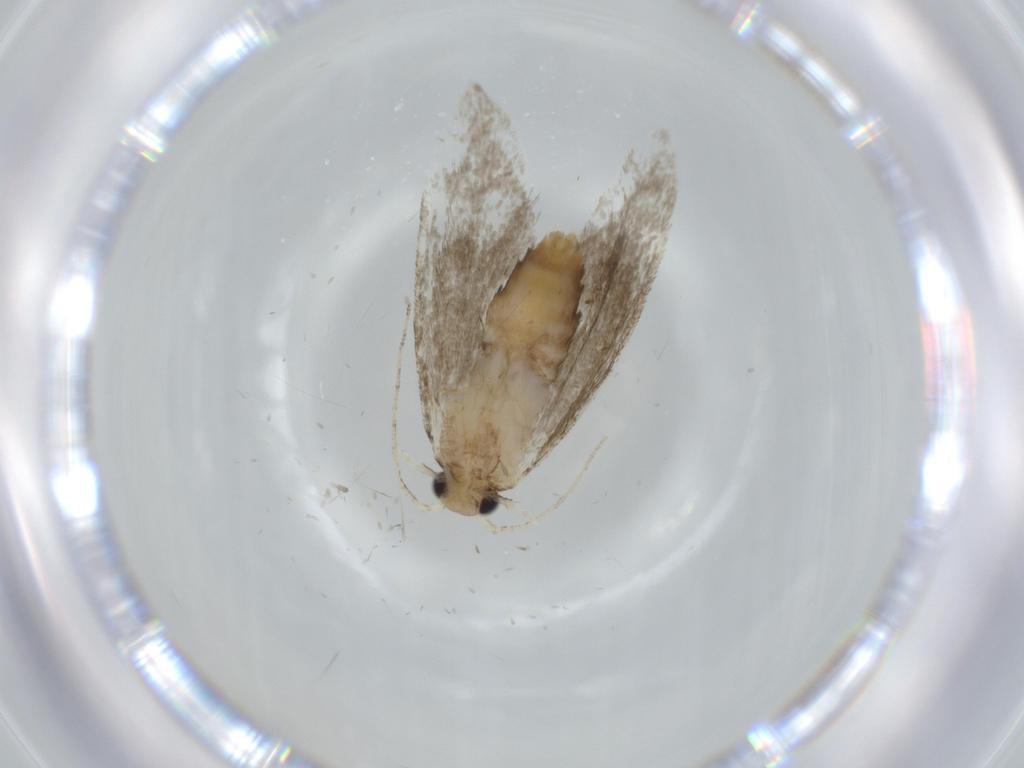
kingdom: Animalia
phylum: Arthropoda
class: Insecta
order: Lepidoptera
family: Tineidae
